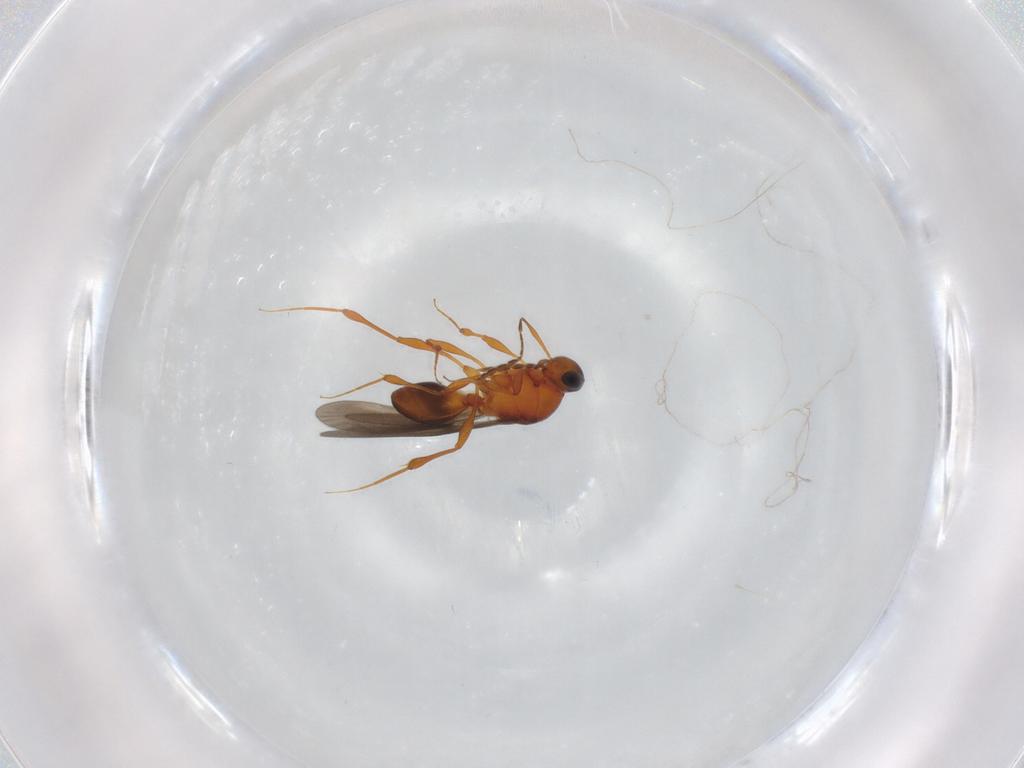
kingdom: Animalia
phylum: Arthropoda
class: Insecta
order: Hymenoptera
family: Platygastridae
